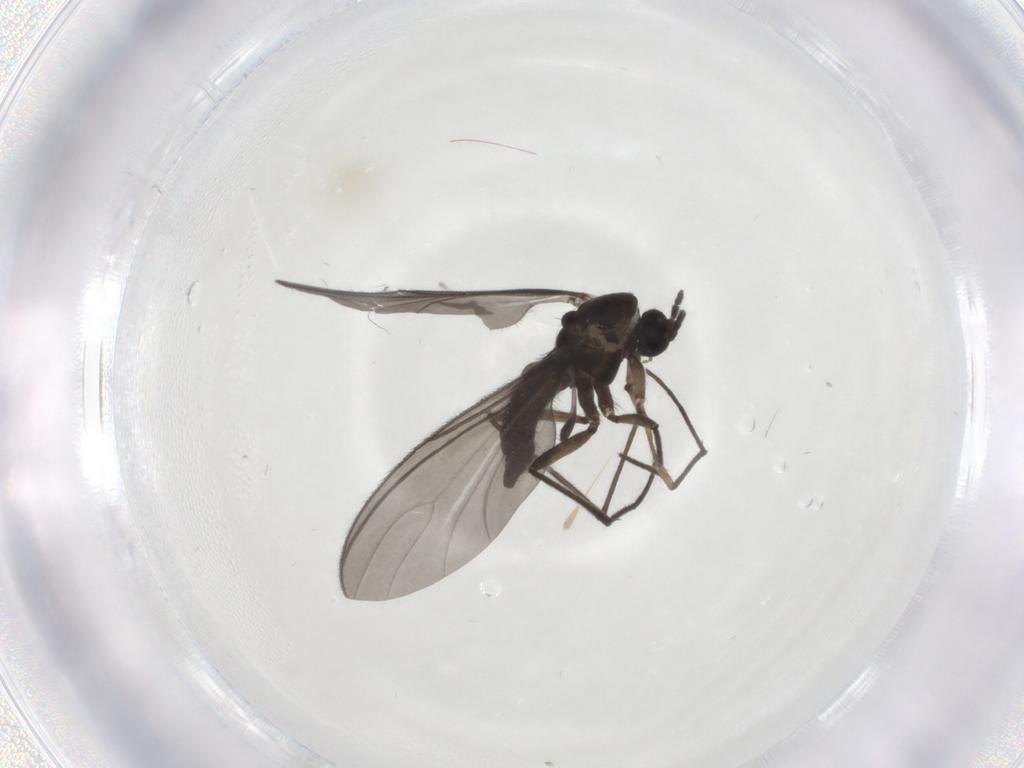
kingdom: Animalia
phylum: Arthropoda
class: Insecta
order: Diptera
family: Sciaridae
